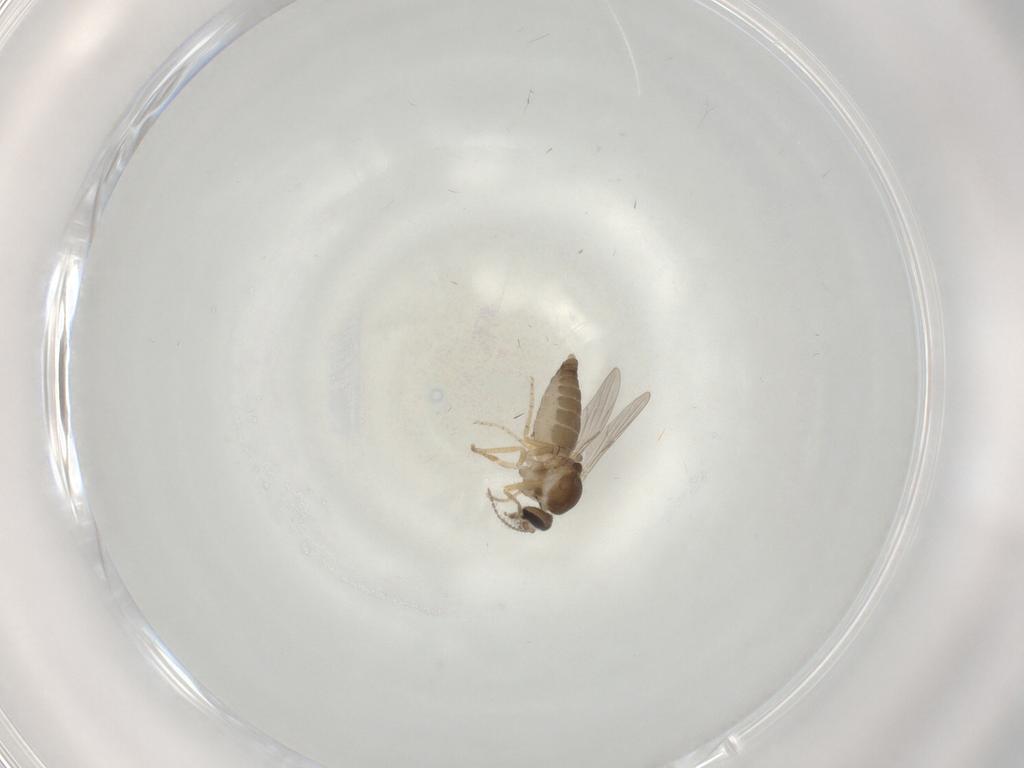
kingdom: Animalia
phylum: Arthropoda
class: Insecta
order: Diptera
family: Ceratopogonidae
